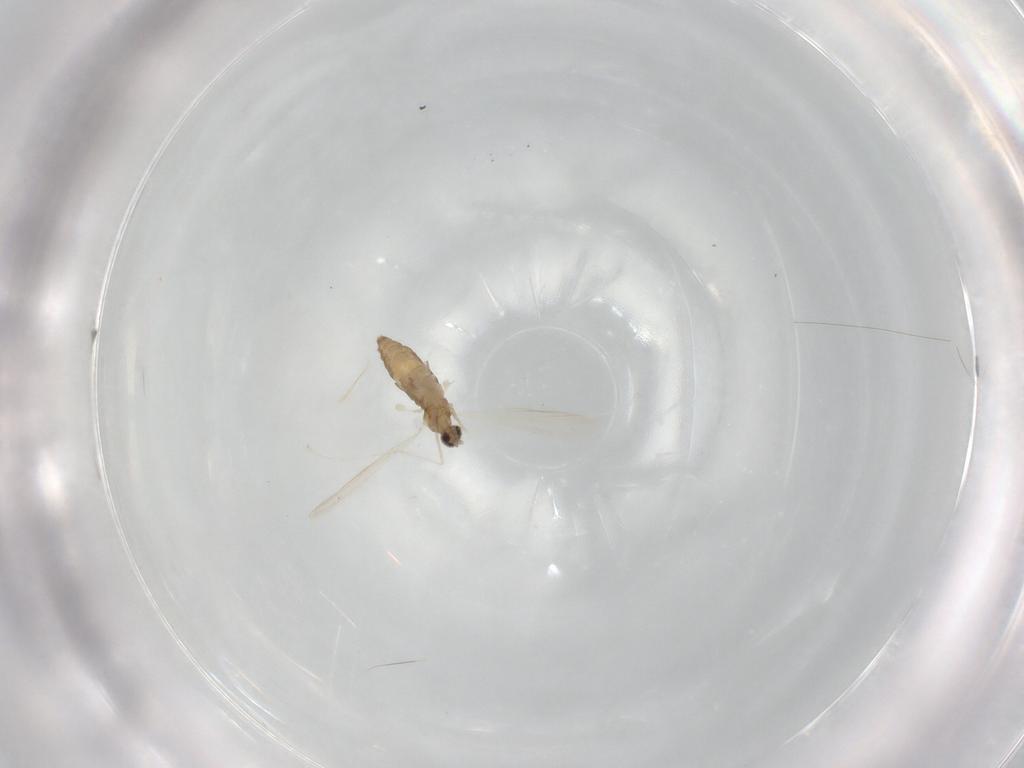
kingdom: Animalia
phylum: Arthropoda
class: Insecta
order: Diptera
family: Cecidomyiidae
